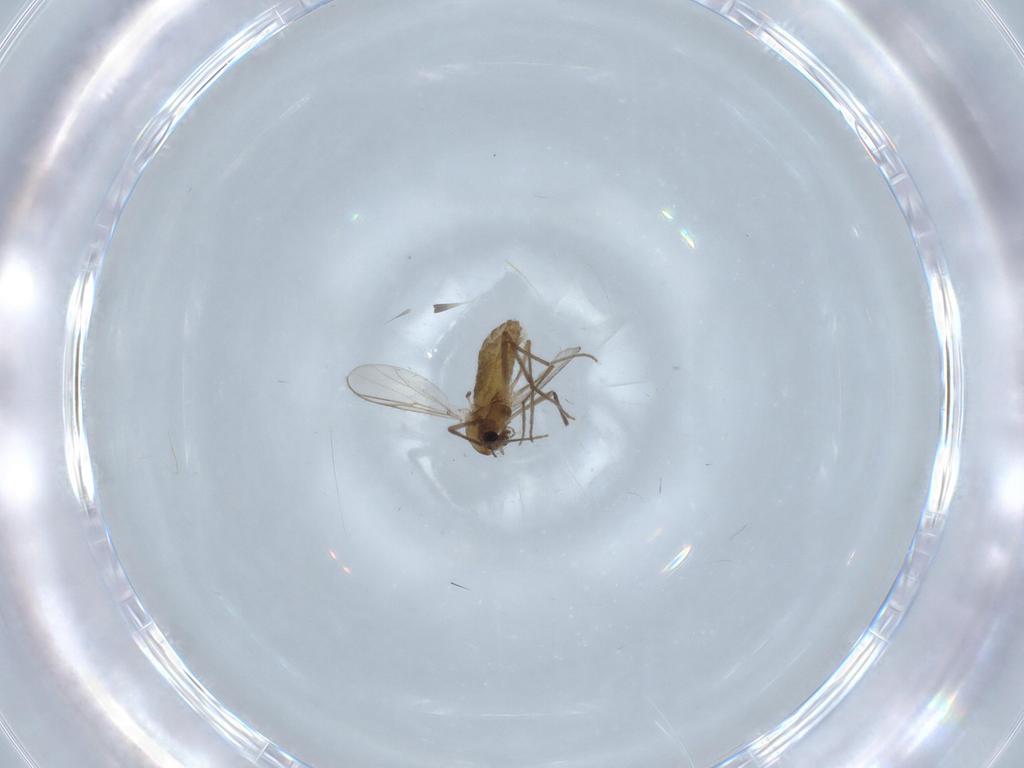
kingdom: Animalia
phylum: Arthropoda
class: Insecta
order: Diptera
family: Chironomidae
